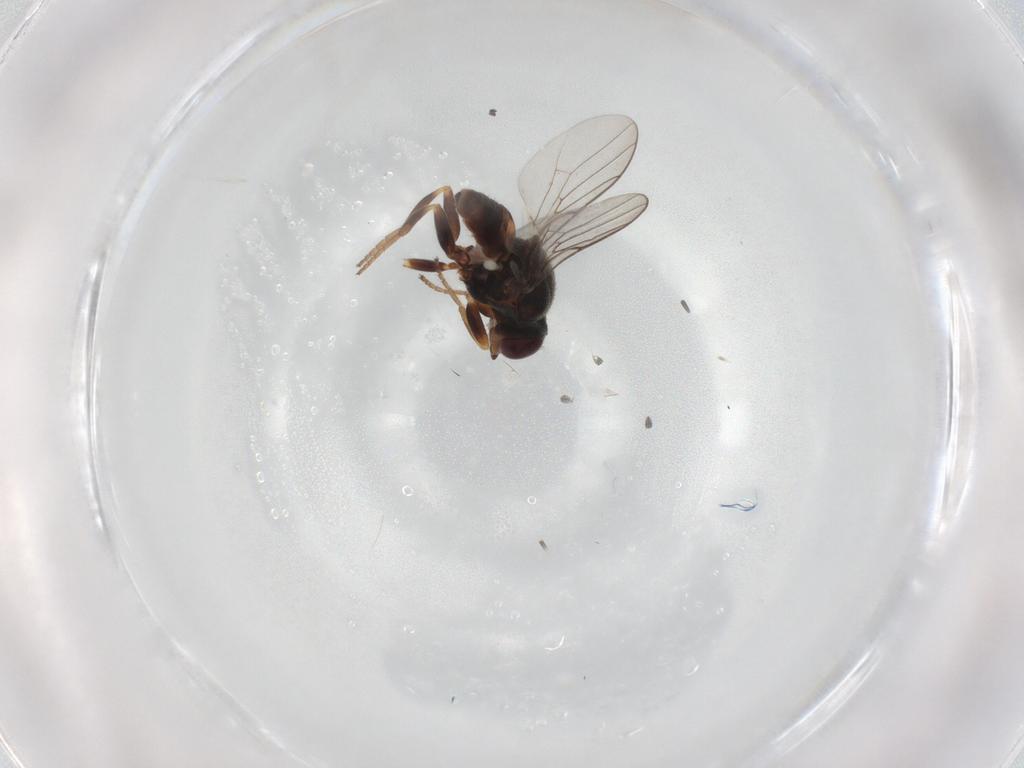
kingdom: Animalia
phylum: Arthropoda
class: Insecta
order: Diptera
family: Chloropidae
